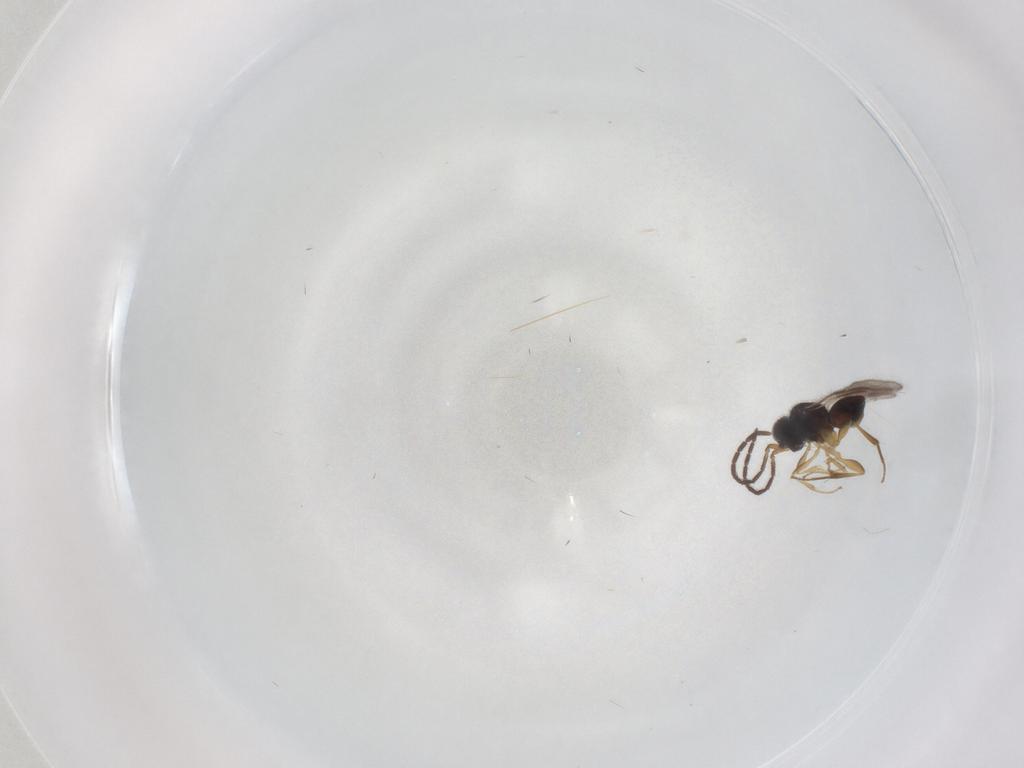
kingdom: Animalia
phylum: Arthropoda
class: Insecta
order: Hymenoptera
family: Megaspilidae
